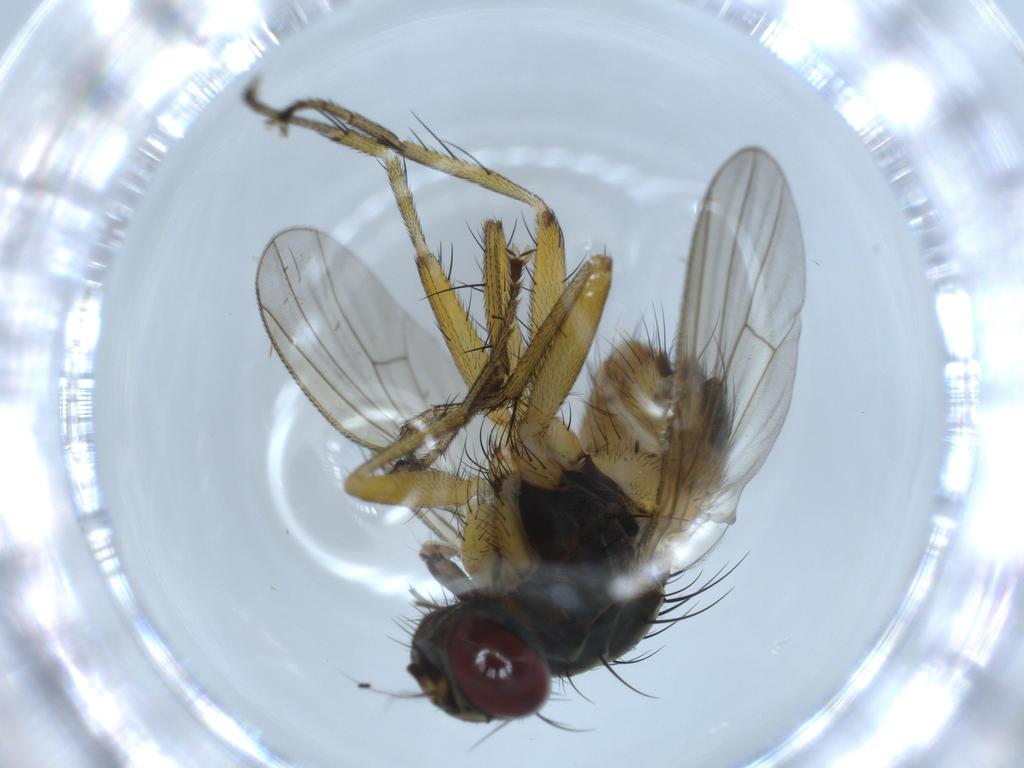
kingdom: Animalia
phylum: Arthropoda
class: Insecta
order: Diptera
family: Muscidae
